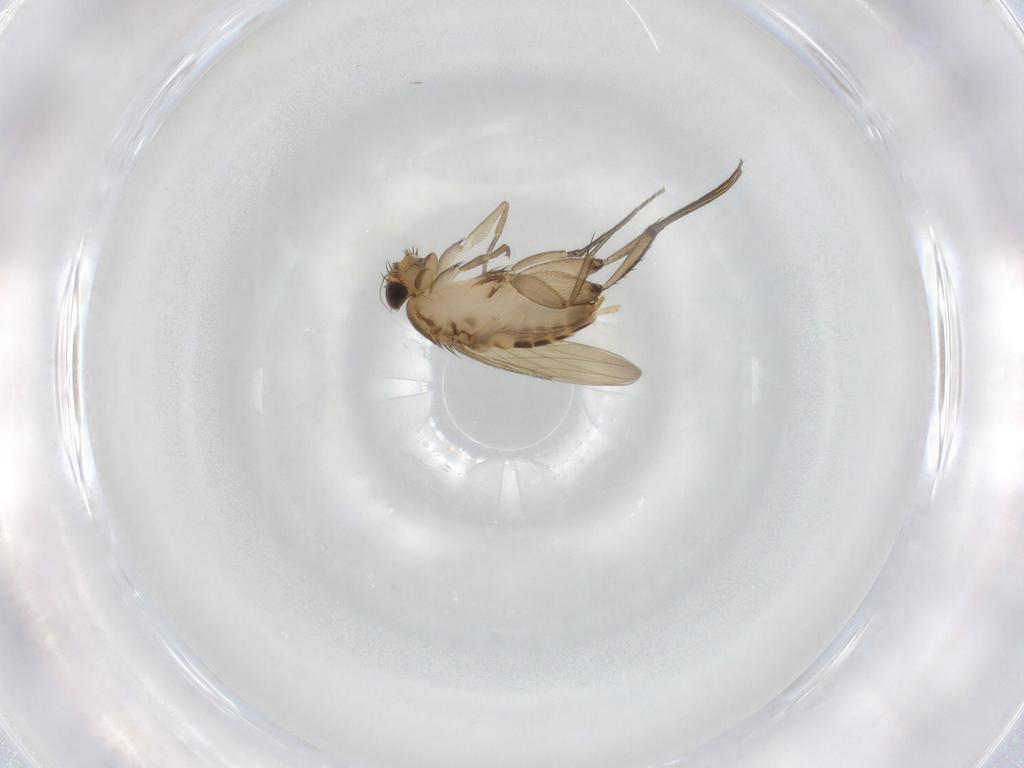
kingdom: Animalia
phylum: Arthropoda
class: Insecta
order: Diptera
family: Phoridae
